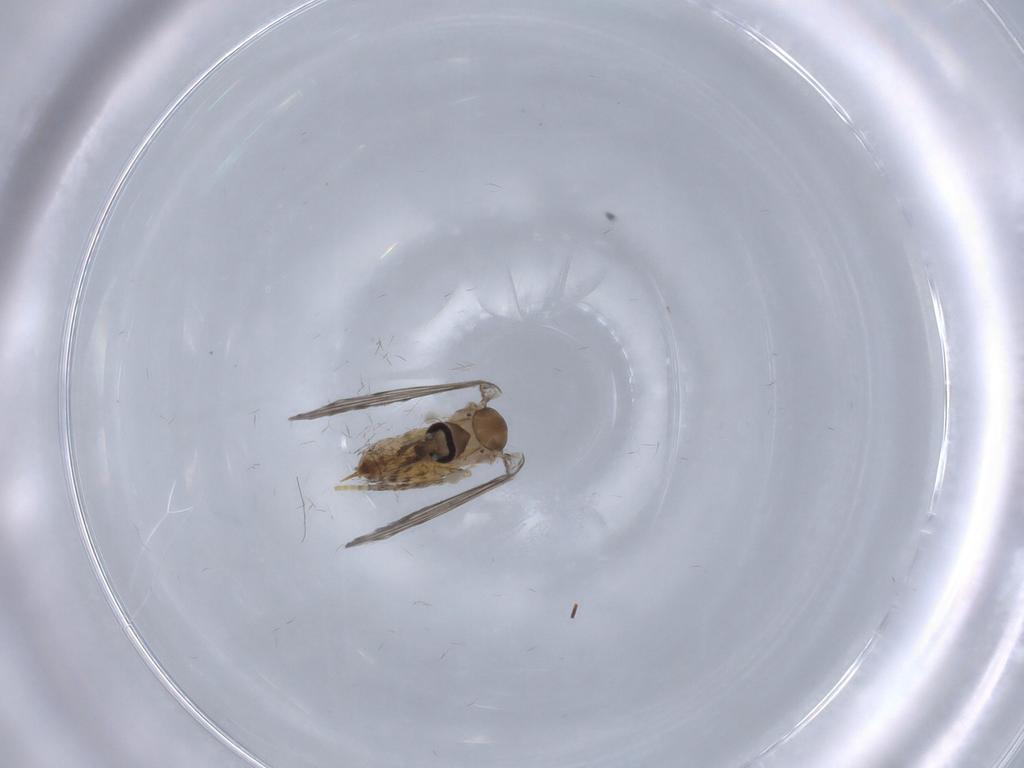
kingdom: Animalia
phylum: Arthropoda
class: Insecta
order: Diptera
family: Psychodidae
